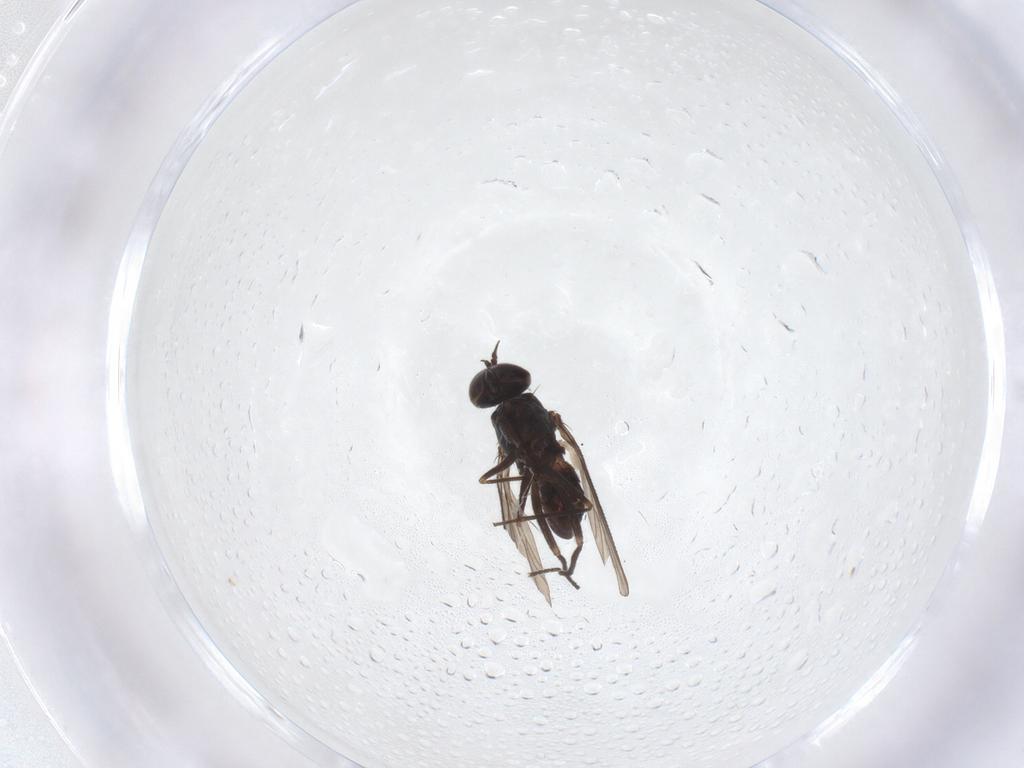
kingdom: Animalia
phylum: Arthropoda
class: Insecta
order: Diptera
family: Dolichopodidae
